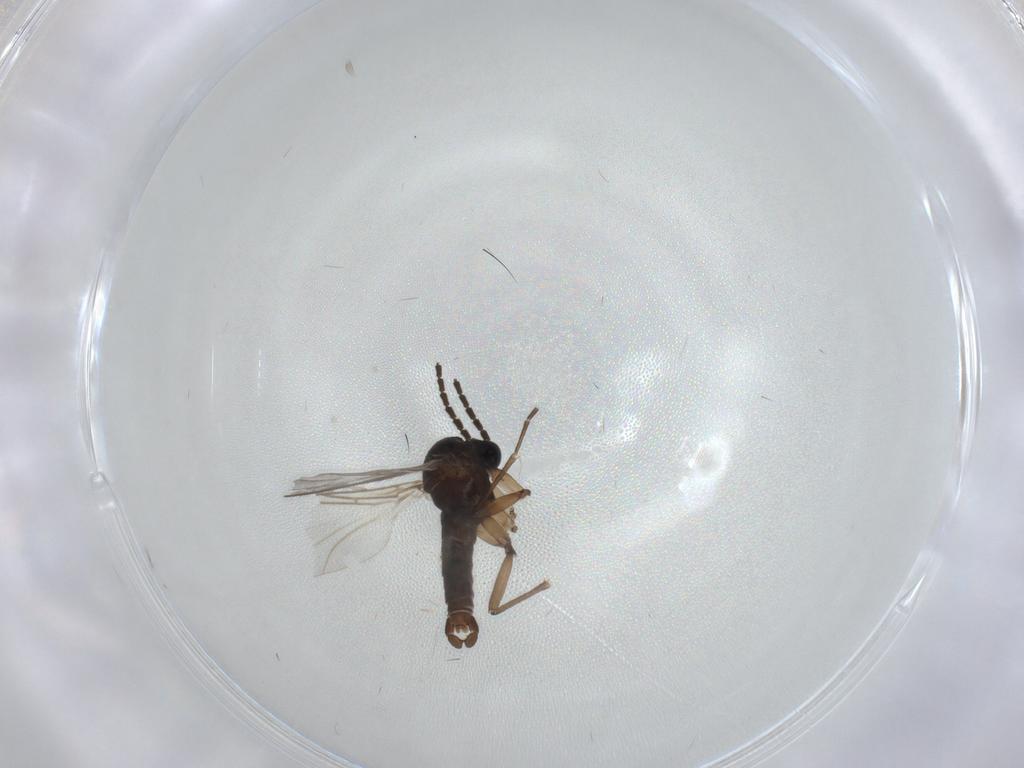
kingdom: Animalia
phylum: Arthropoda
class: Insecta
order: Diptera
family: Sciaridae
